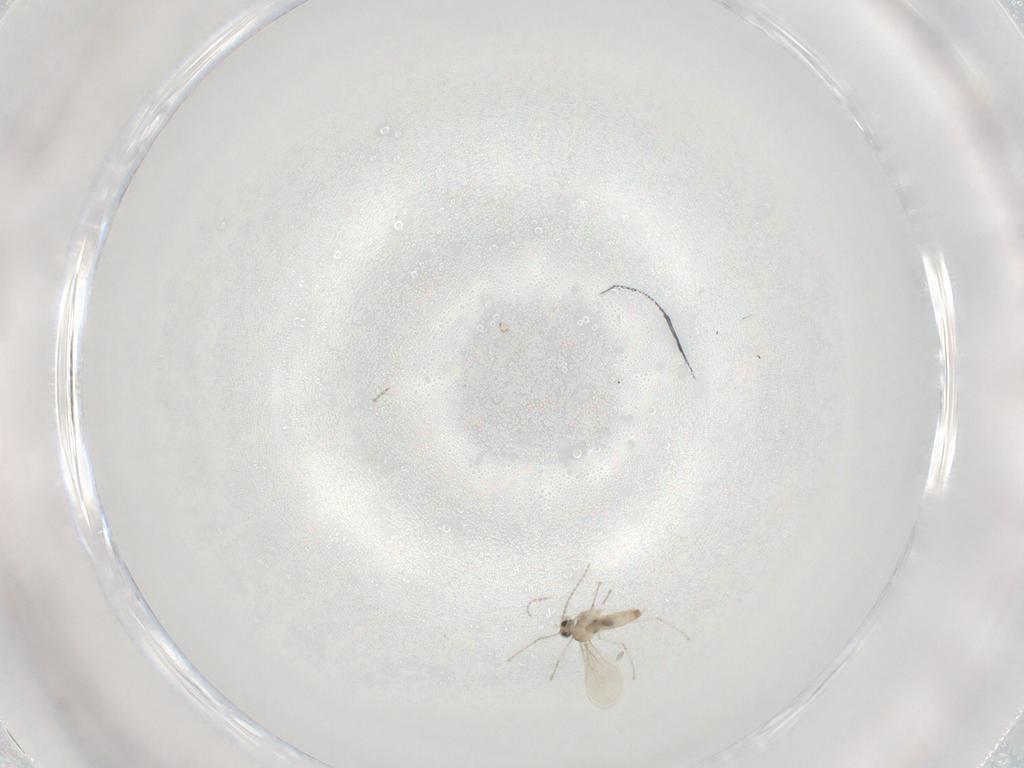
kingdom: Animalia
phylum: Arthropoda
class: Insecta
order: Diptera
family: Cecidomyiidae
